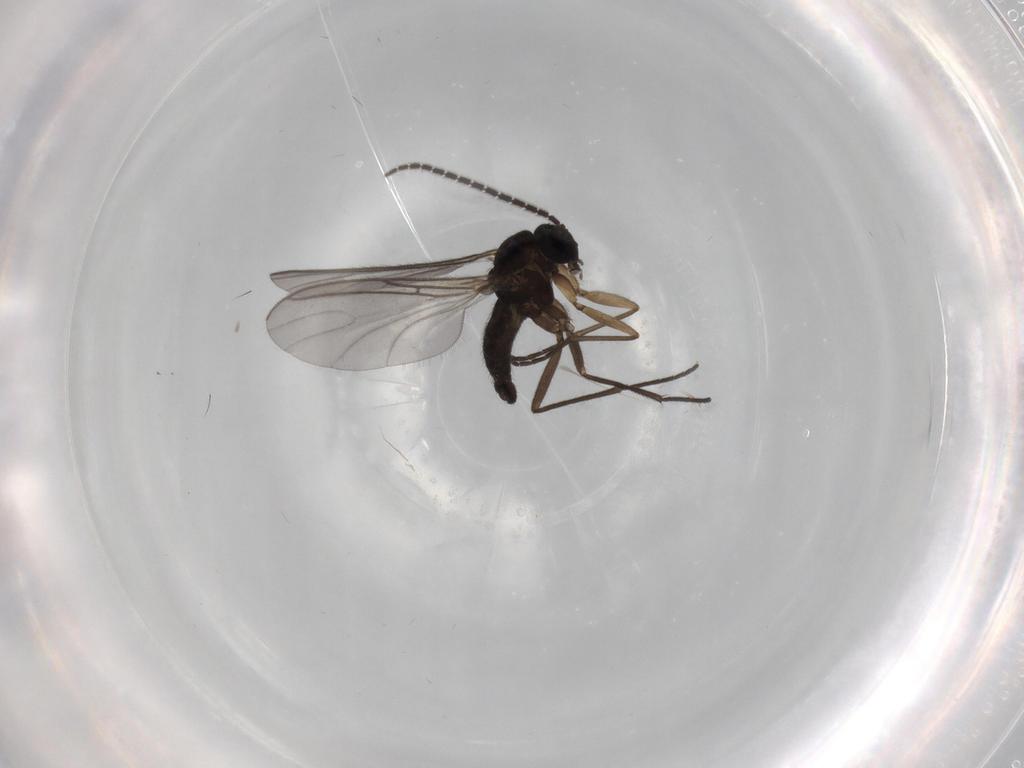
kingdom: Animalia
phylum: Arthropoda
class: Insecta
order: Diptera
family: Sciaridae
